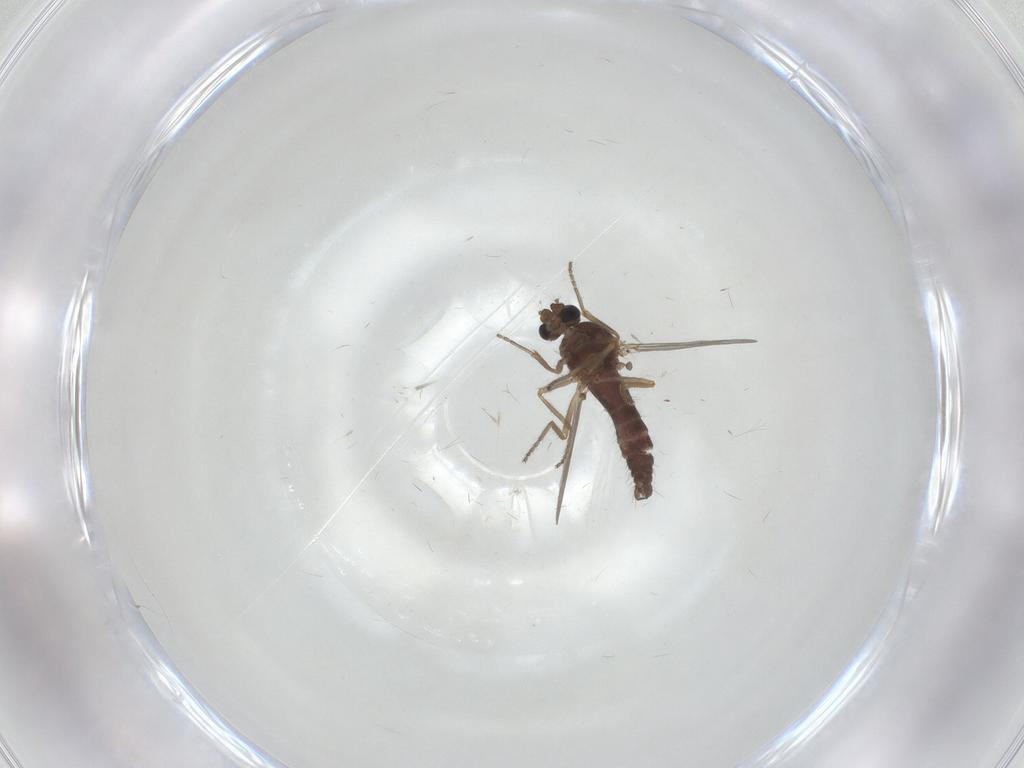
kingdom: Animalia
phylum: Arthropoda
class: Insecta
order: Diptera
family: Ceratopogonidae
